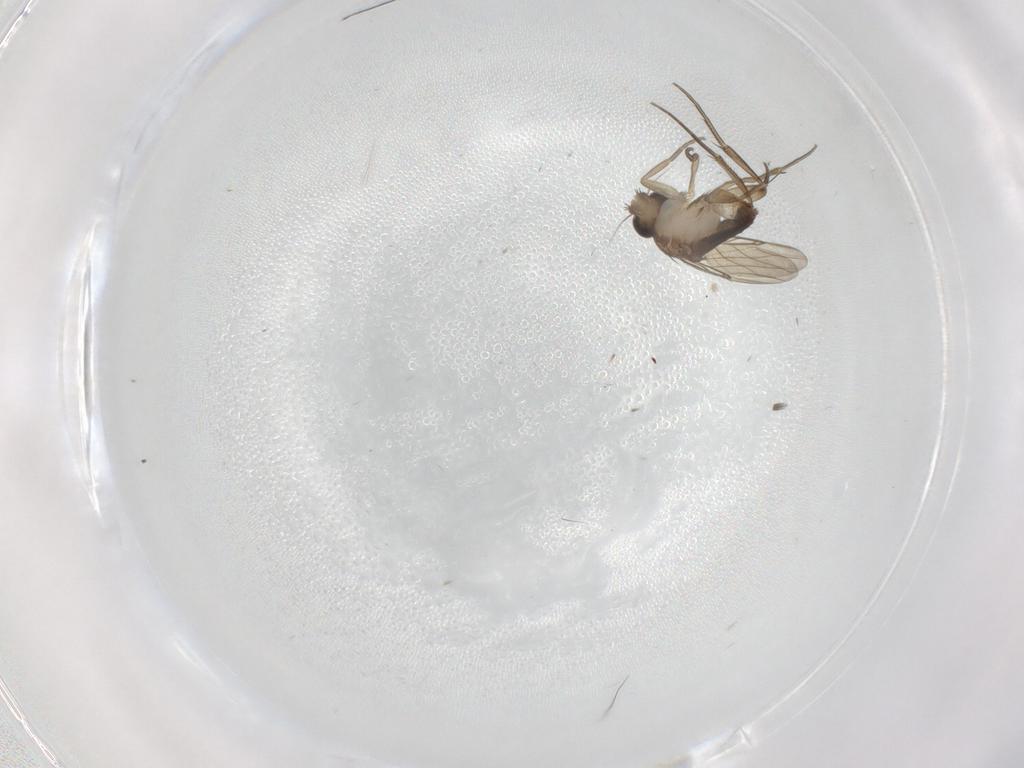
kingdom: Animalia
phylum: Arthropoda
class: Insecta
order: Diptera
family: Phoridae
